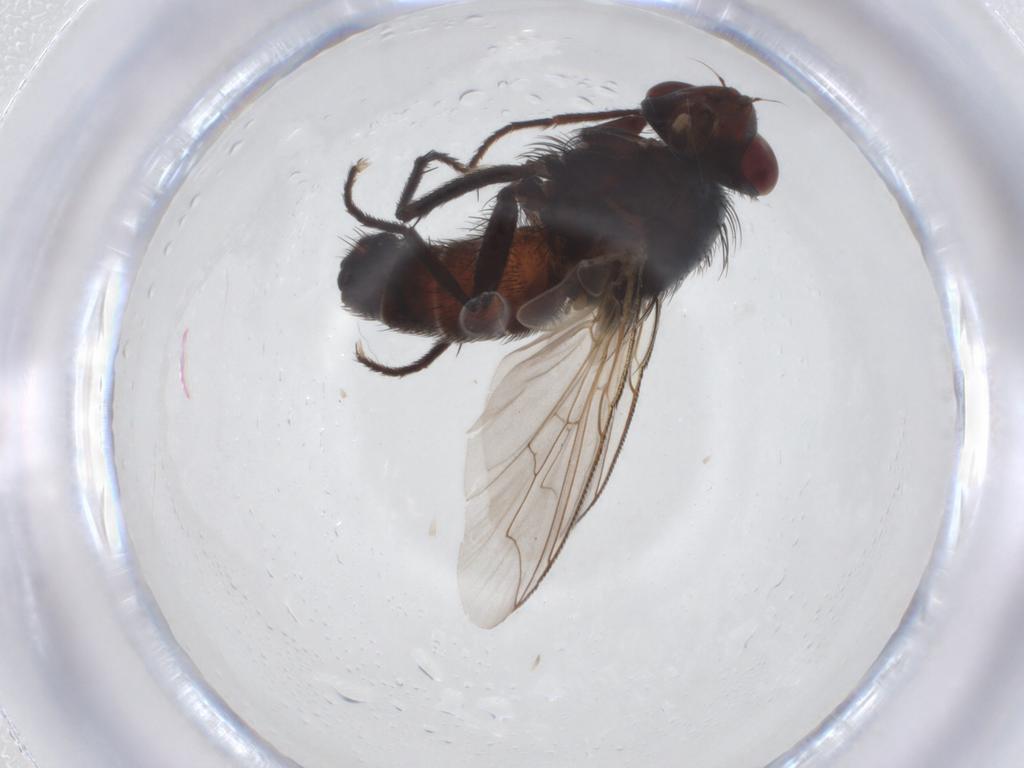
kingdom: Animalia
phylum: Arthropoda
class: Insecta
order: Diptera
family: Sarcophagidae
